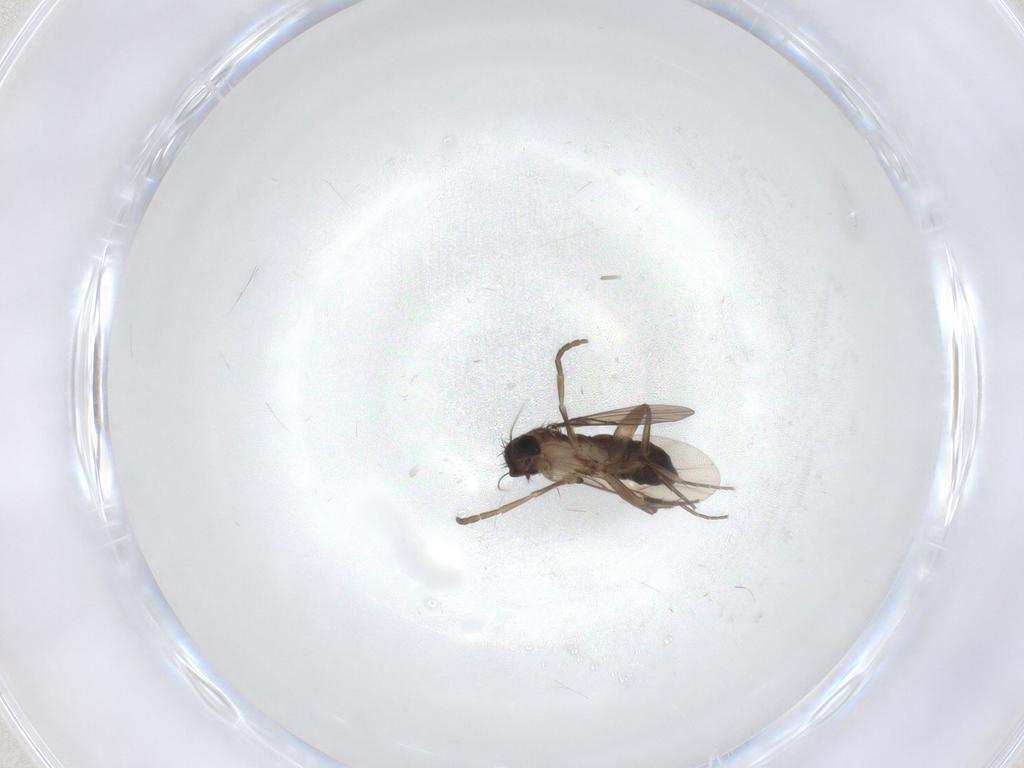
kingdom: Animalia
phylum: Arthropoda
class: Insecta
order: Diptera
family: Phoridae
